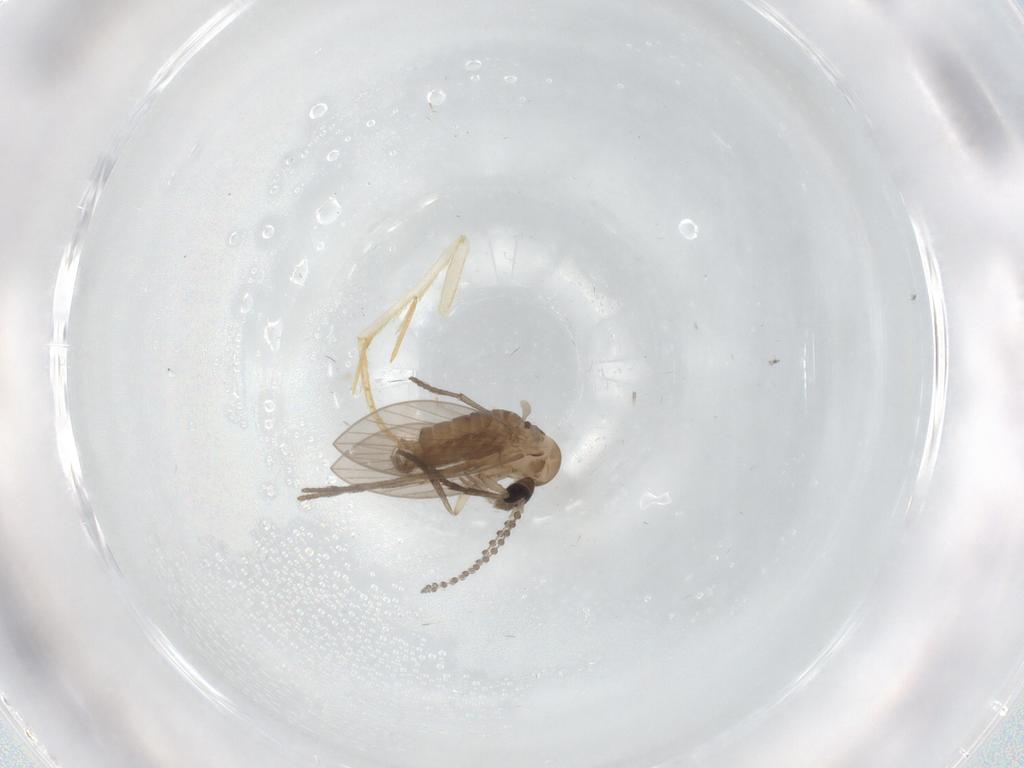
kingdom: Animalia
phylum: Arthropoda
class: Insecta
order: Diptera
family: Psychodidae
